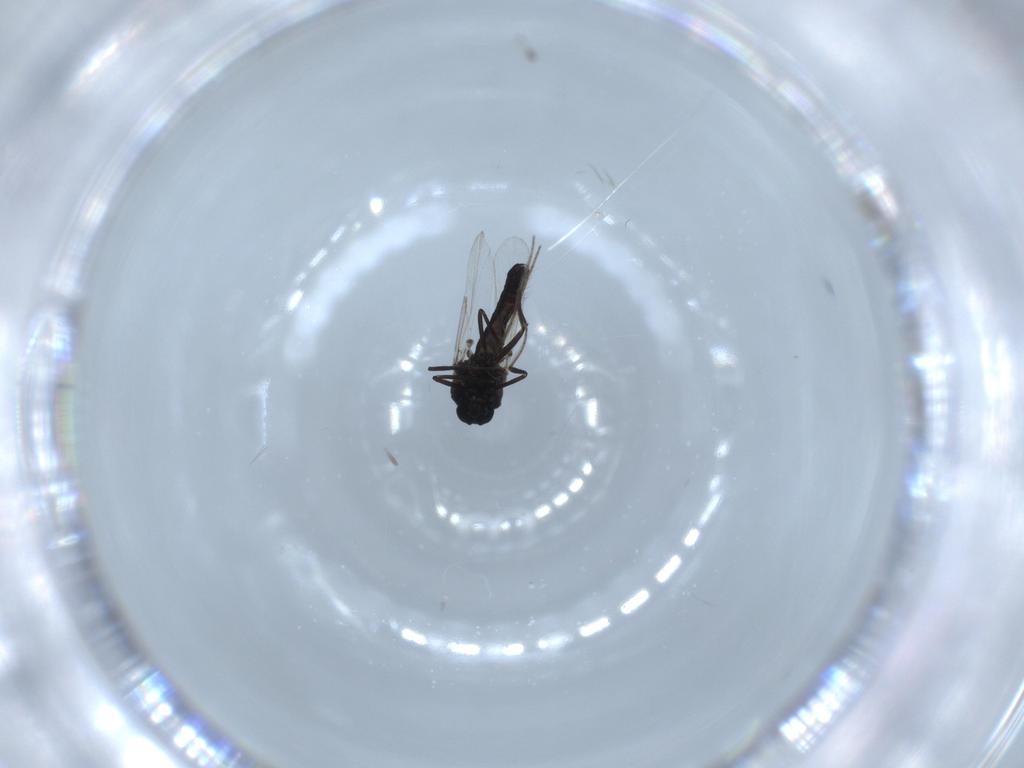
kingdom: Animalia
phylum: Arthropoda
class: Insecta
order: Diptera
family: Ceratopogonidae
